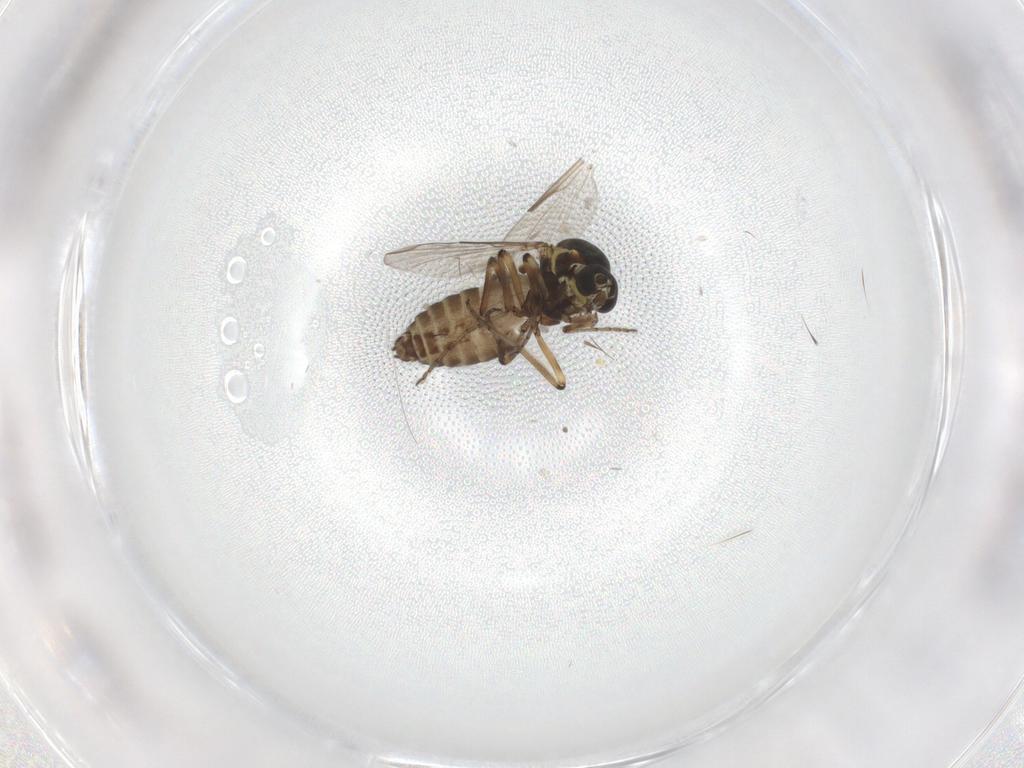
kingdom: Animalia
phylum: Arthropoda
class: Insecta
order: Diptera
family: Ceratopogonidae
